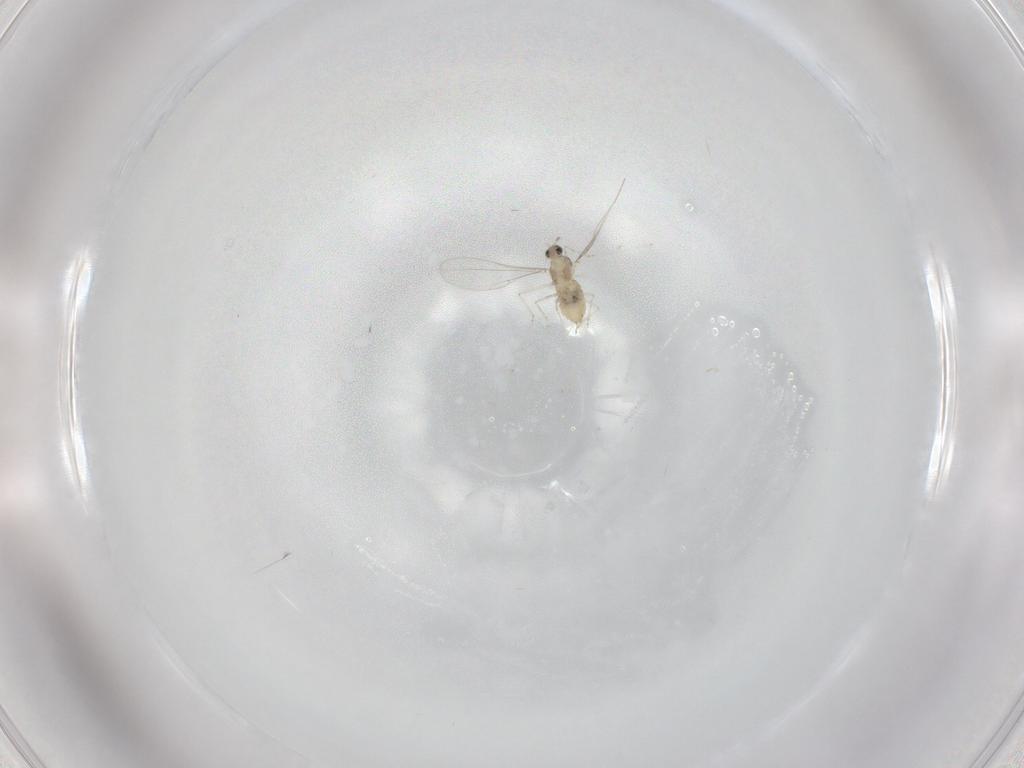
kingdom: Animalia
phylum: Arthropoda
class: Insecta
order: Diptera
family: Cecidomyiidae
